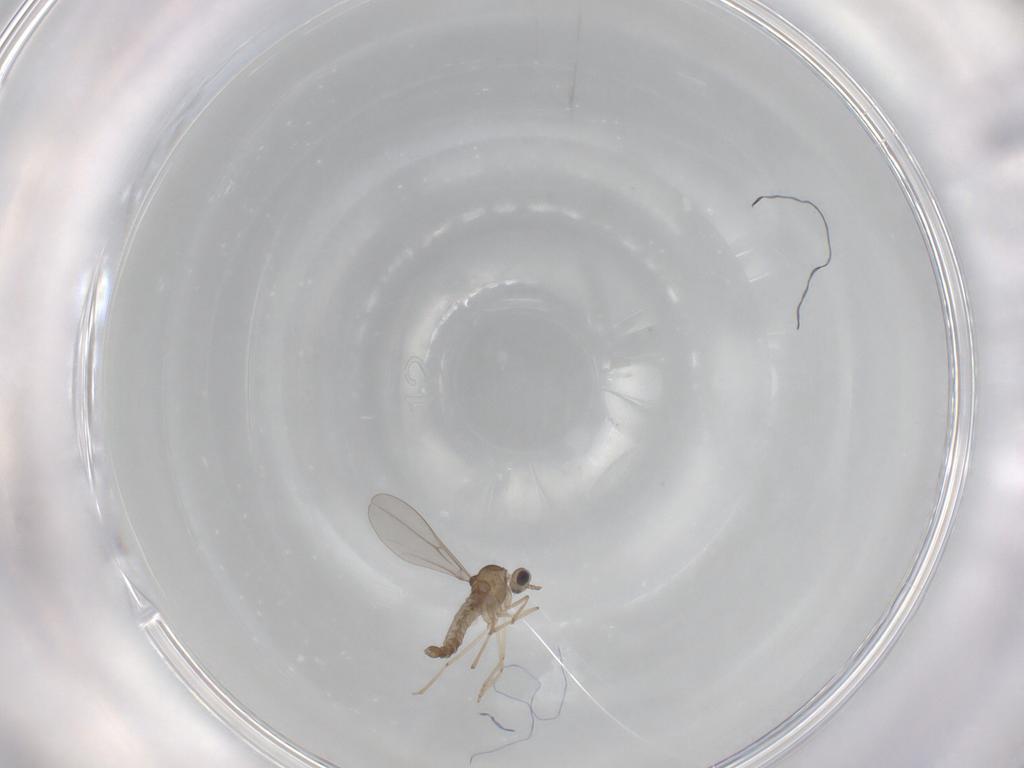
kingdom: Animalia
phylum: Arthropoda
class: Insecta
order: Diptera
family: Cecidomyiidae
